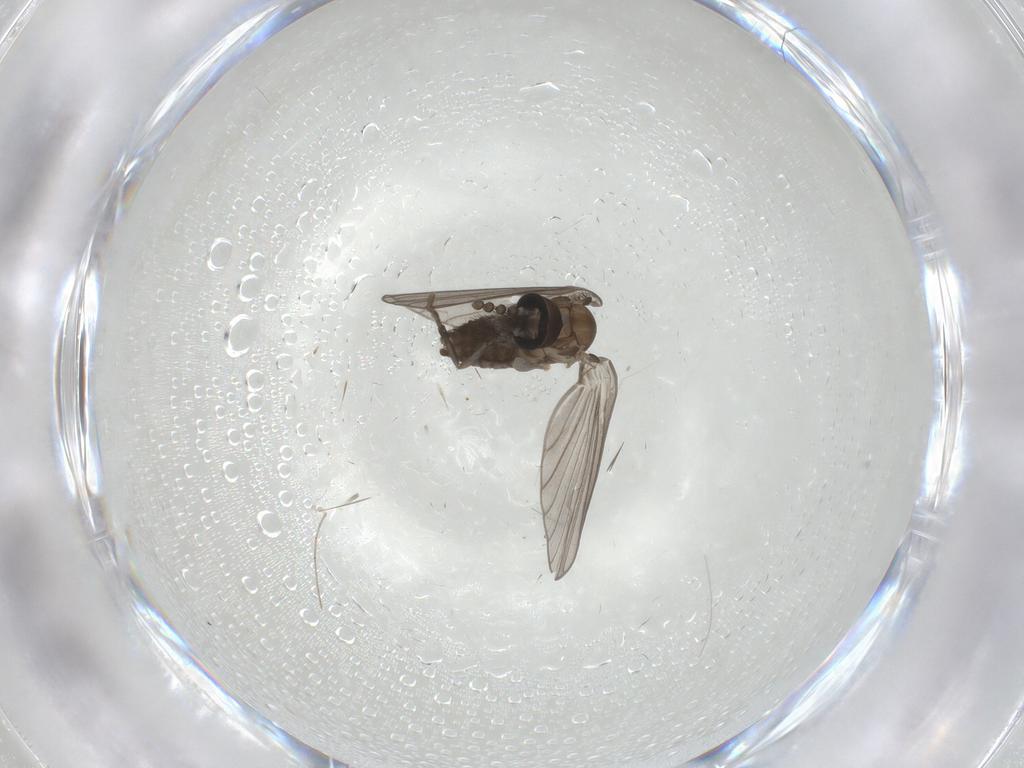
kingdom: Animalia
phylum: Arthropoda
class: Insecta
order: Diptera
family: Cecidomyiidae
